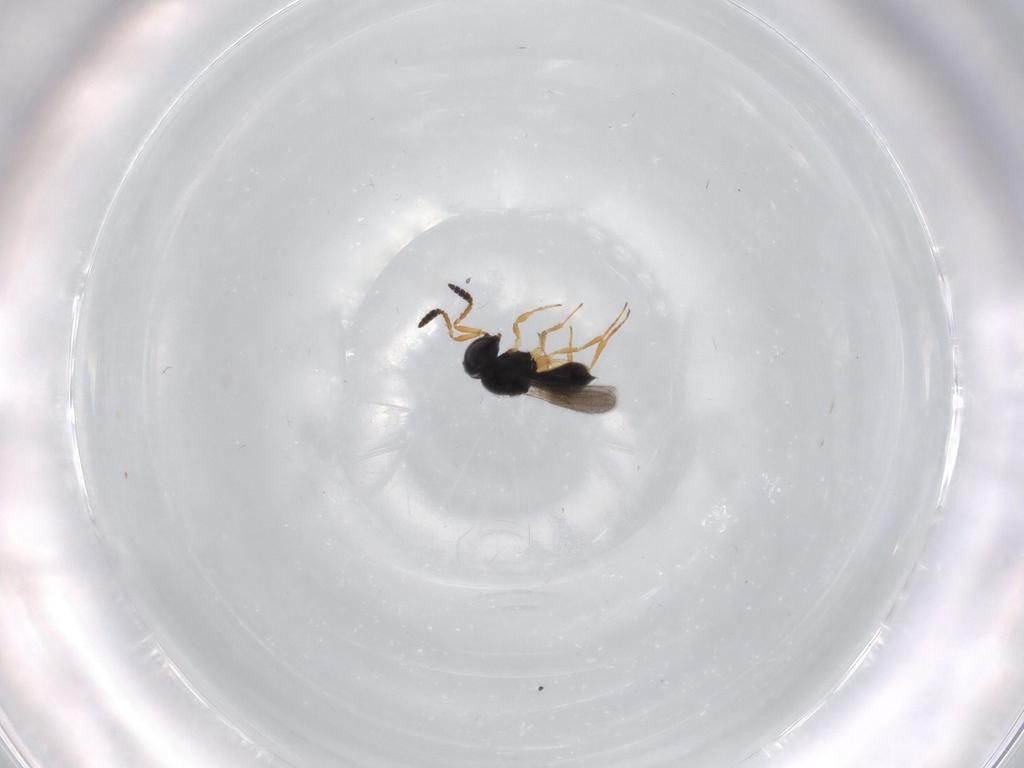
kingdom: Animalia
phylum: Arthropoda
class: Insecta
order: Hymenoptera
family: Scelionidae
